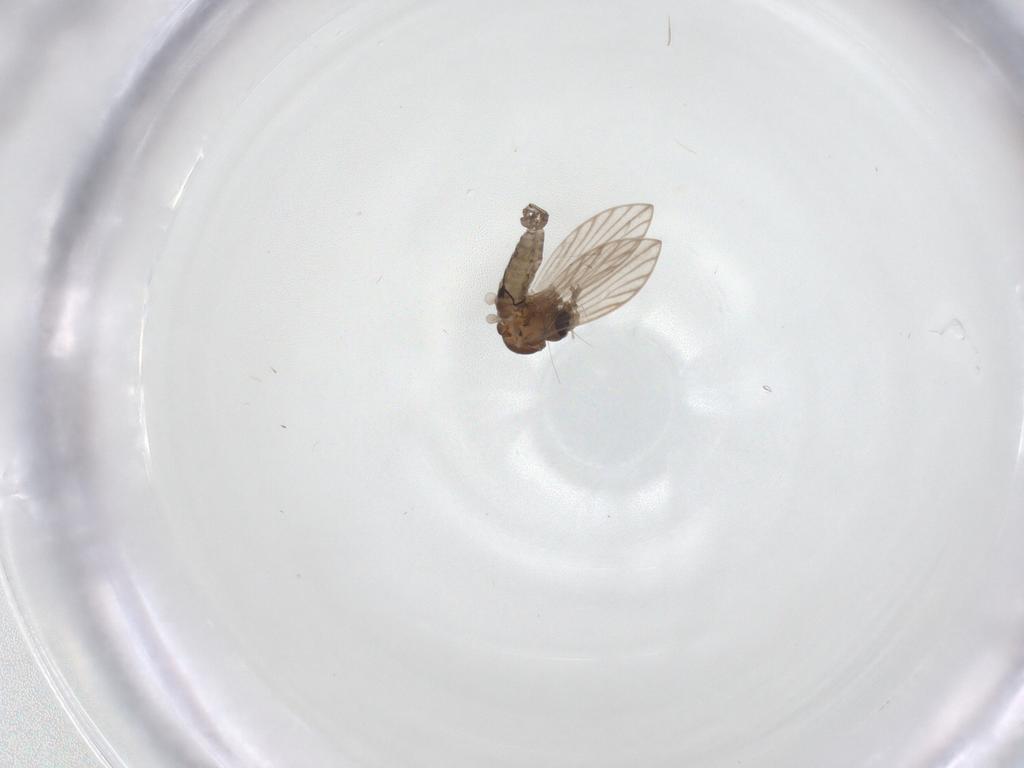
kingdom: Animalia
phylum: Arthropoda
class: Insecta
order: Diptera
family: Psychodidae
